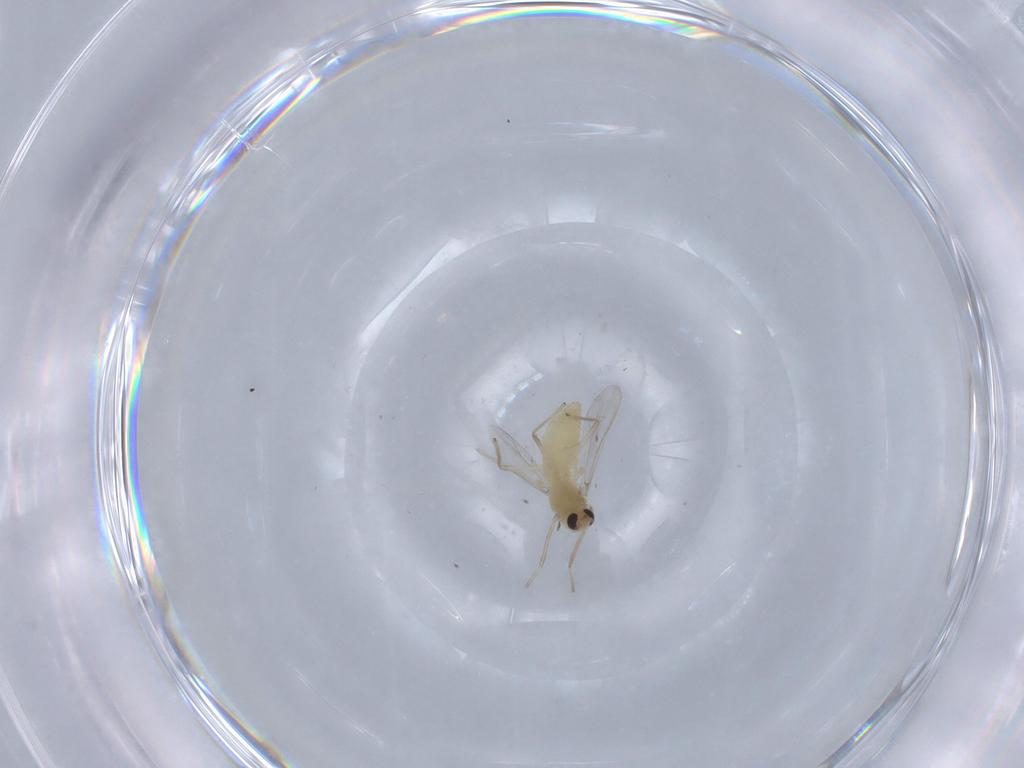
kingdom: Animalia
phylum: Arthropoda
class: Insecta
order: Diptera
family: Chironomidae
